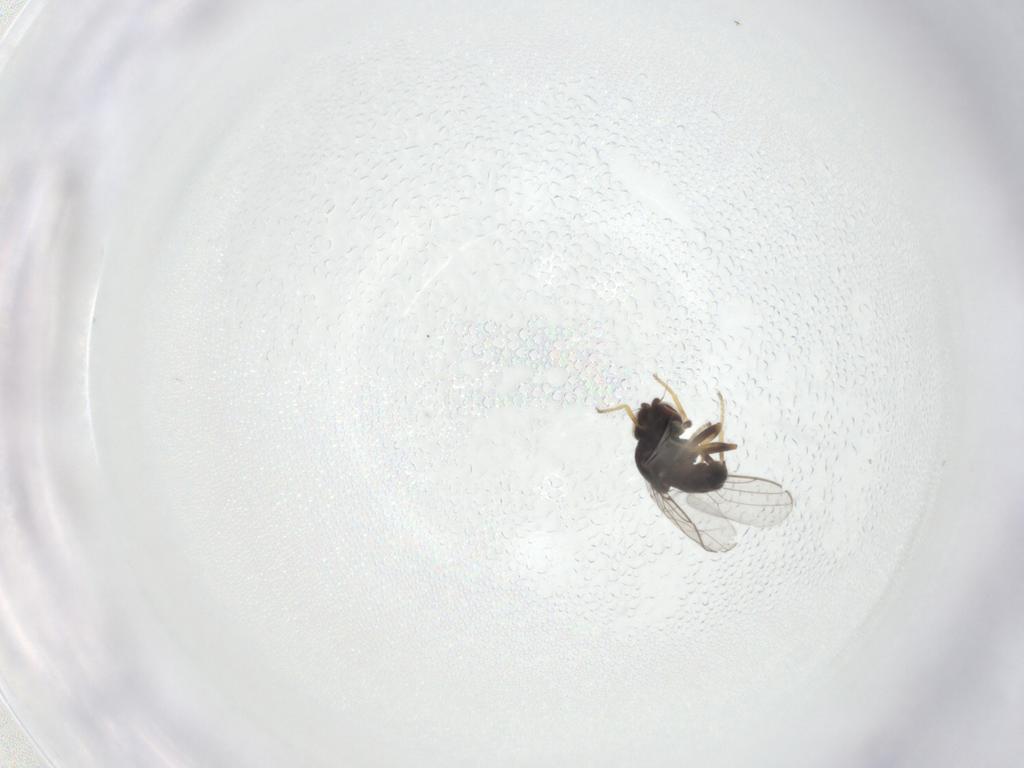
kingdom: Animalia
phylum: Arthropoda
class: Insecta
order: Diptera
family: Chloropidae
